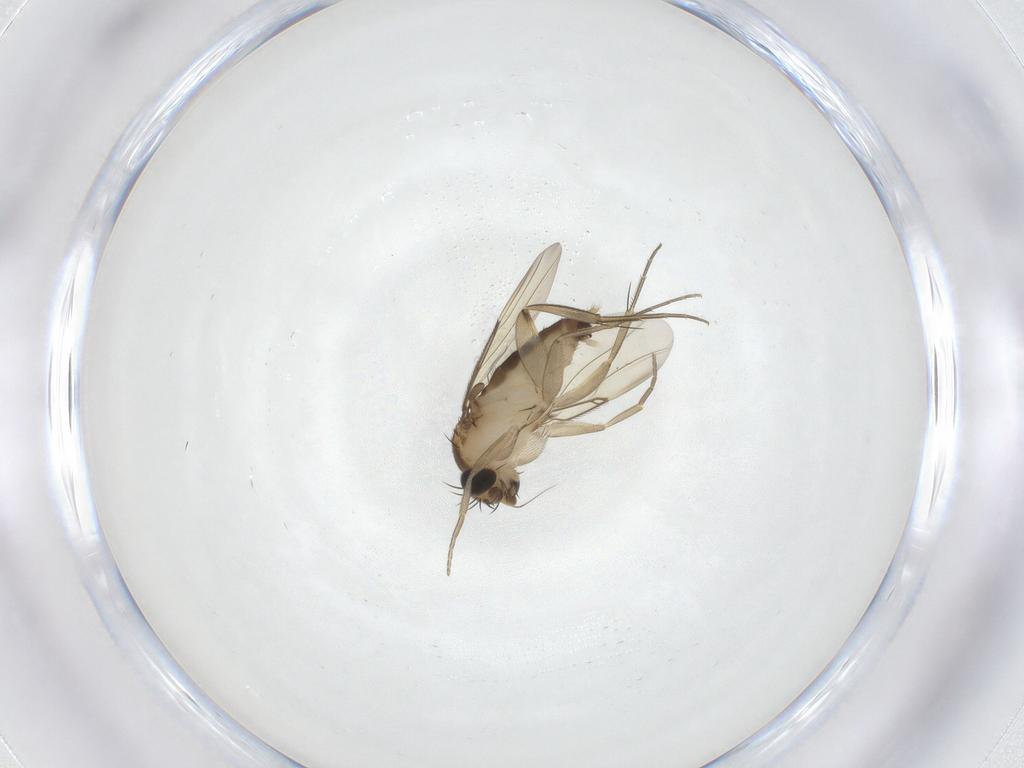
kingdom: Animalia
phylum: Arthropoda
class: Insecta
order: Diptera
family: Phoridae
